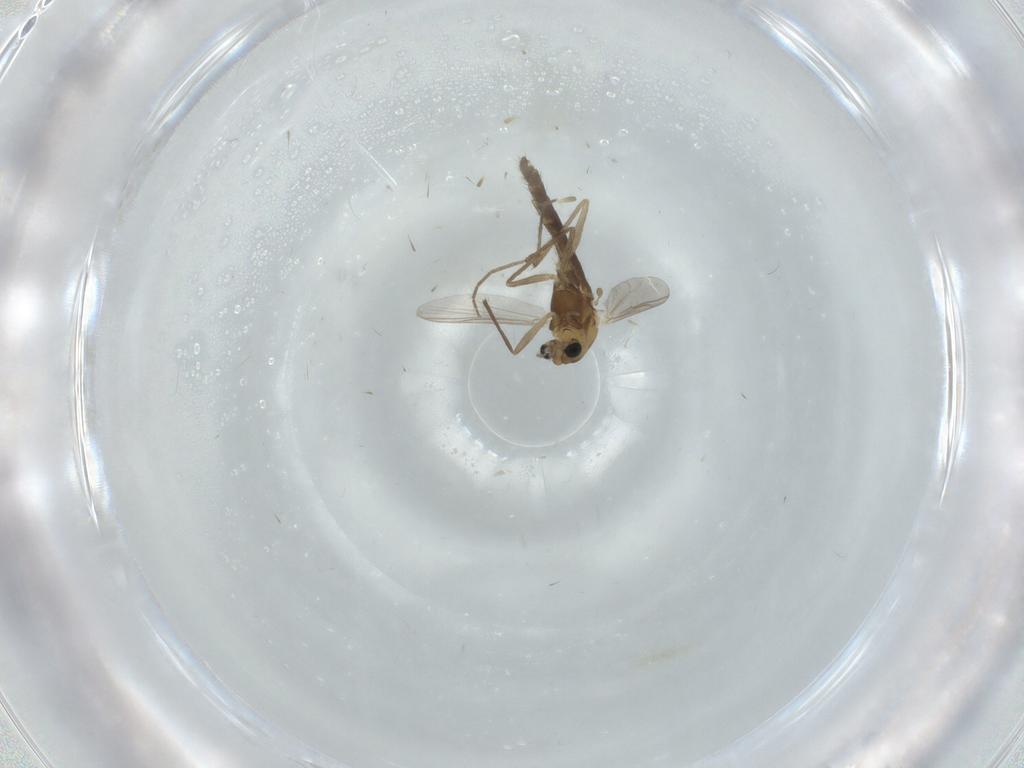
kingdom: Animalia
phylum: Arthropoda
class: Insecta
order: Diptera
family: Chironomidae
